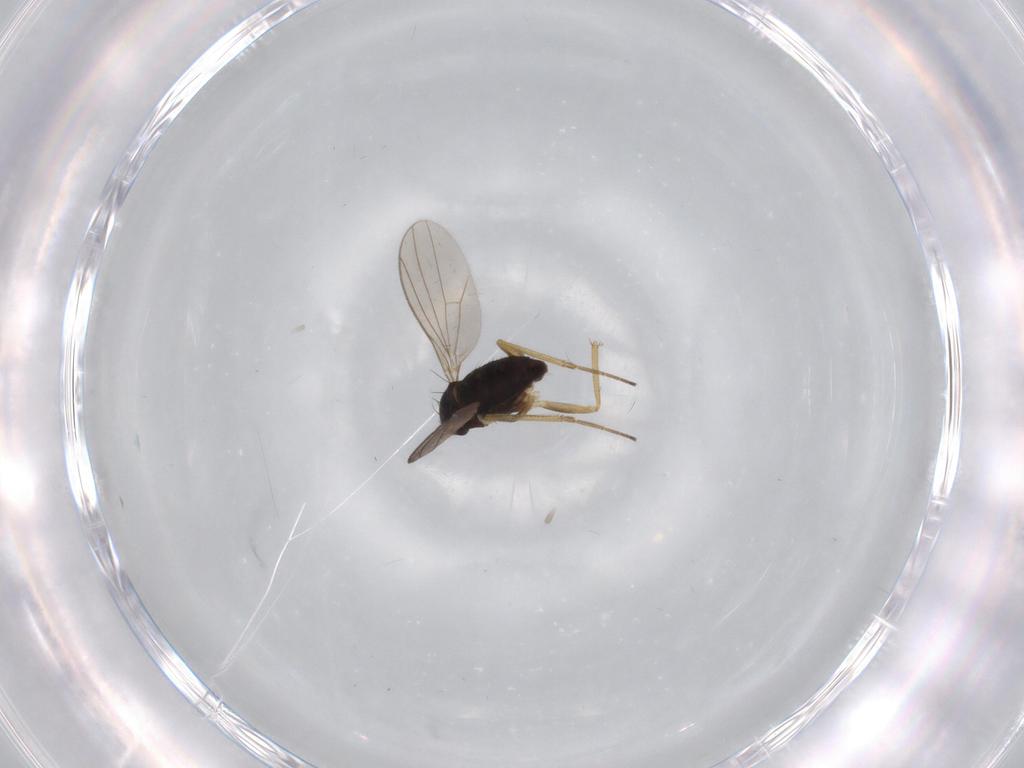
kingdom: Animalia
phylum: Arthropoda
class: Insecta
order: Diptera
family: Dolichopodidae
